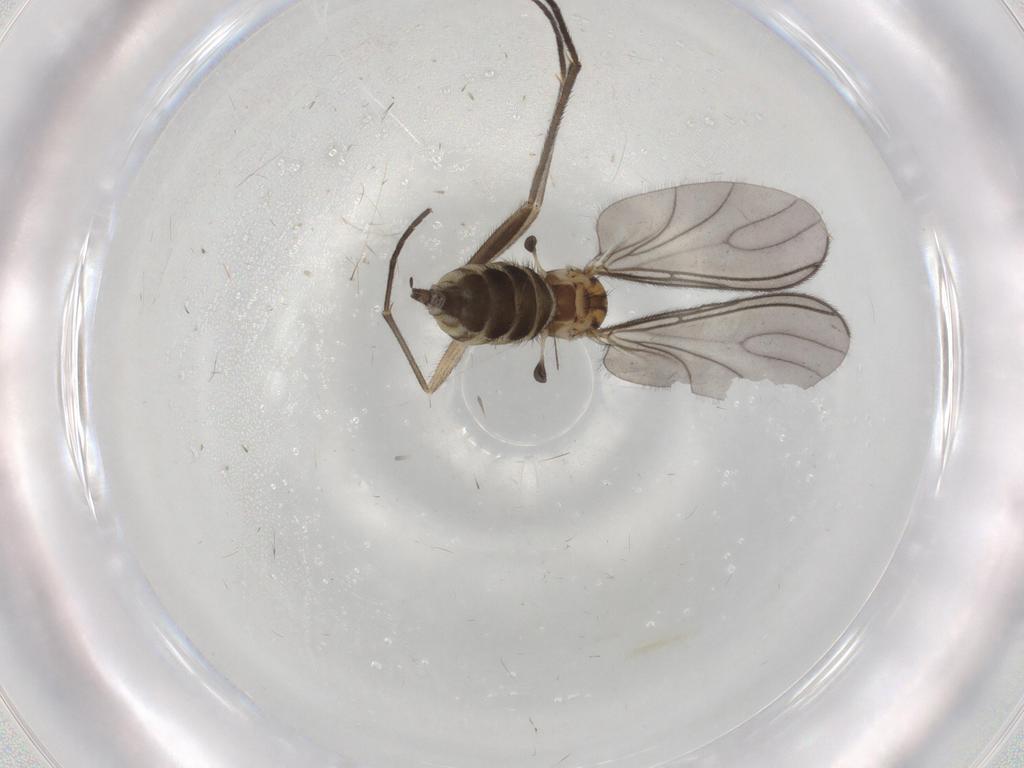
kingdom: Animalia
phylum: Arthropoda
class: Insecta
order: Diptera
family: Sciaridae
